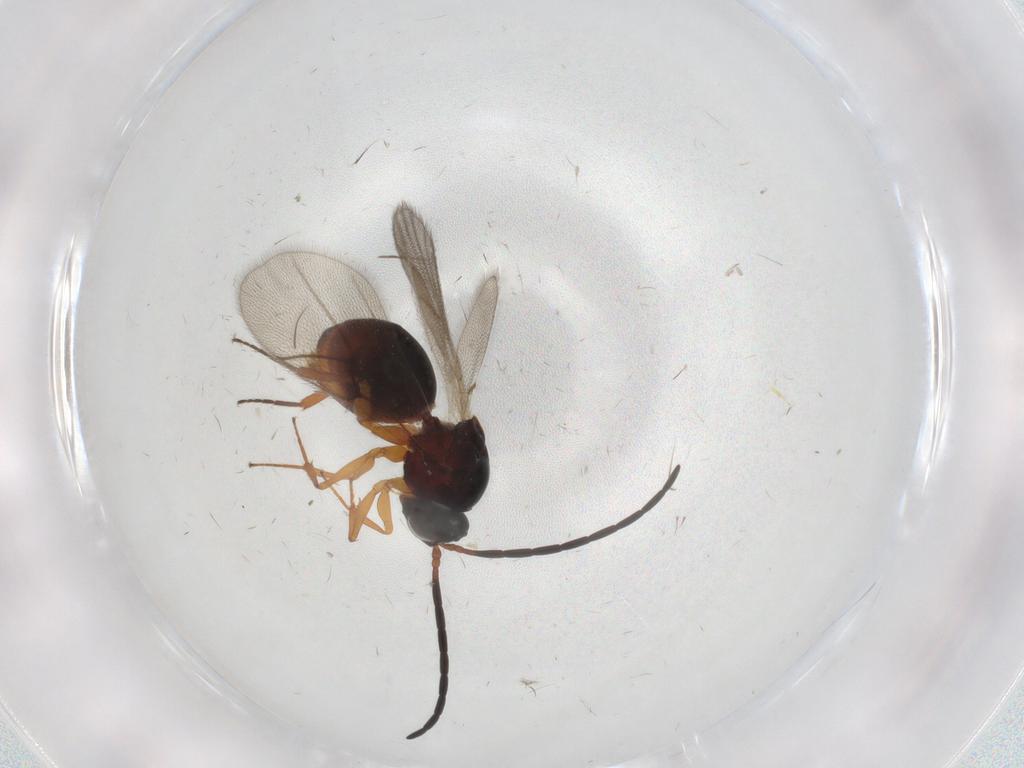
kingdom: Animalia
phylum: Arthropoda
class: Insecta
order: Hymenoptera
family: Figitidae
